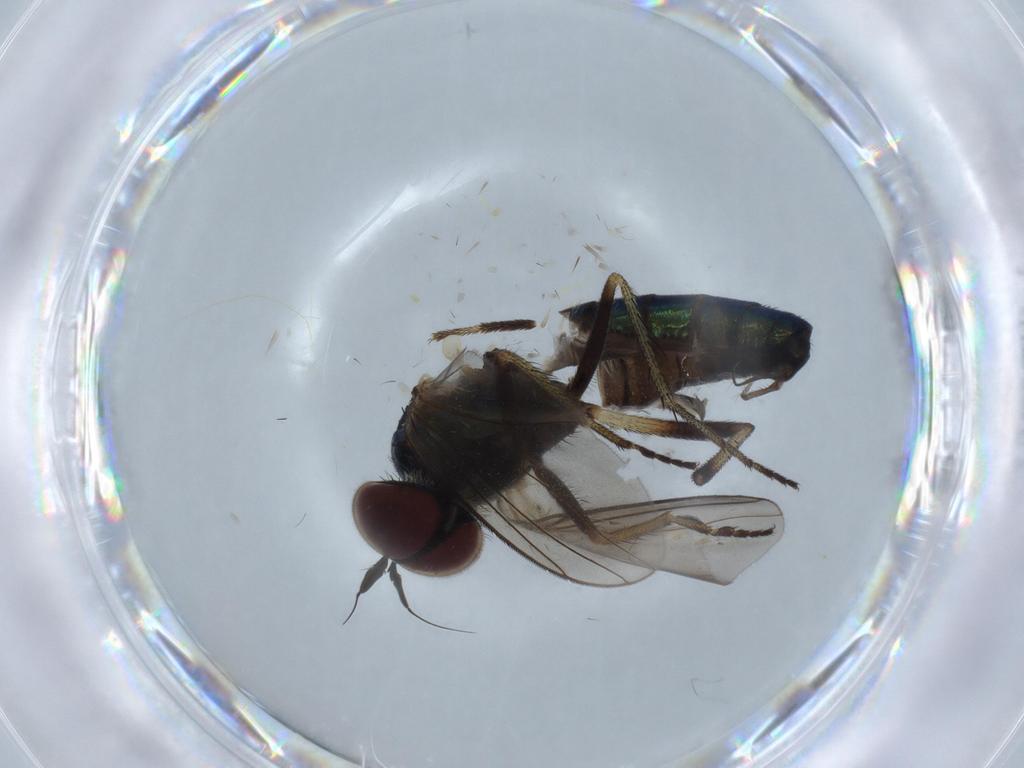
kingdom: Animalia
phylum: Arthropoda
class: Insecta
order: Diptera
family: Dolichopodidae
